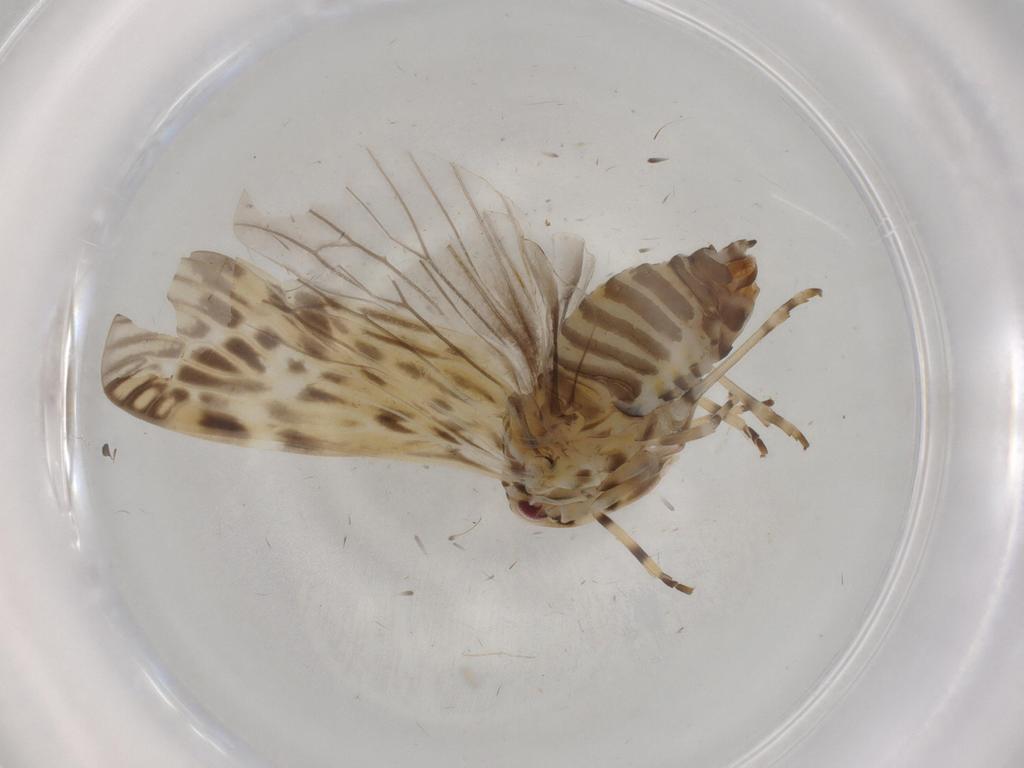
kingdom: Animalia
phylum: Arthropoda
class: Insecta
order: Hemiptera
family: Derbidae
